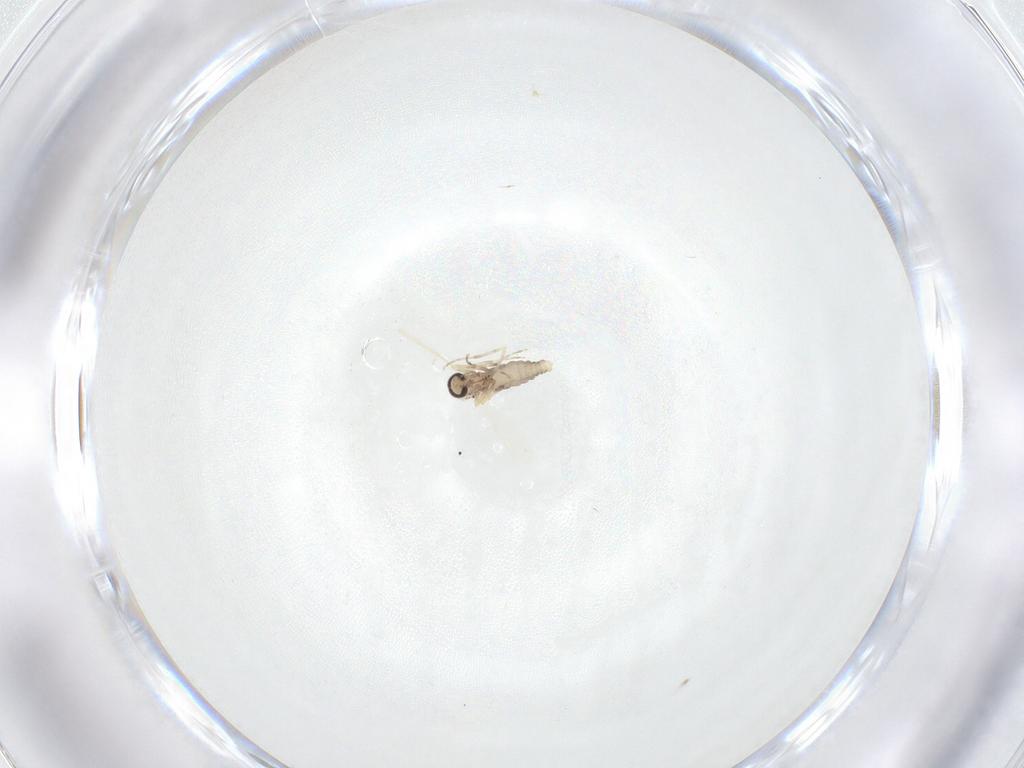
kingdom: Animalia
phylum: Arthropoda
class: Insecta
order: Diptera
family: Ceratopogonidae
